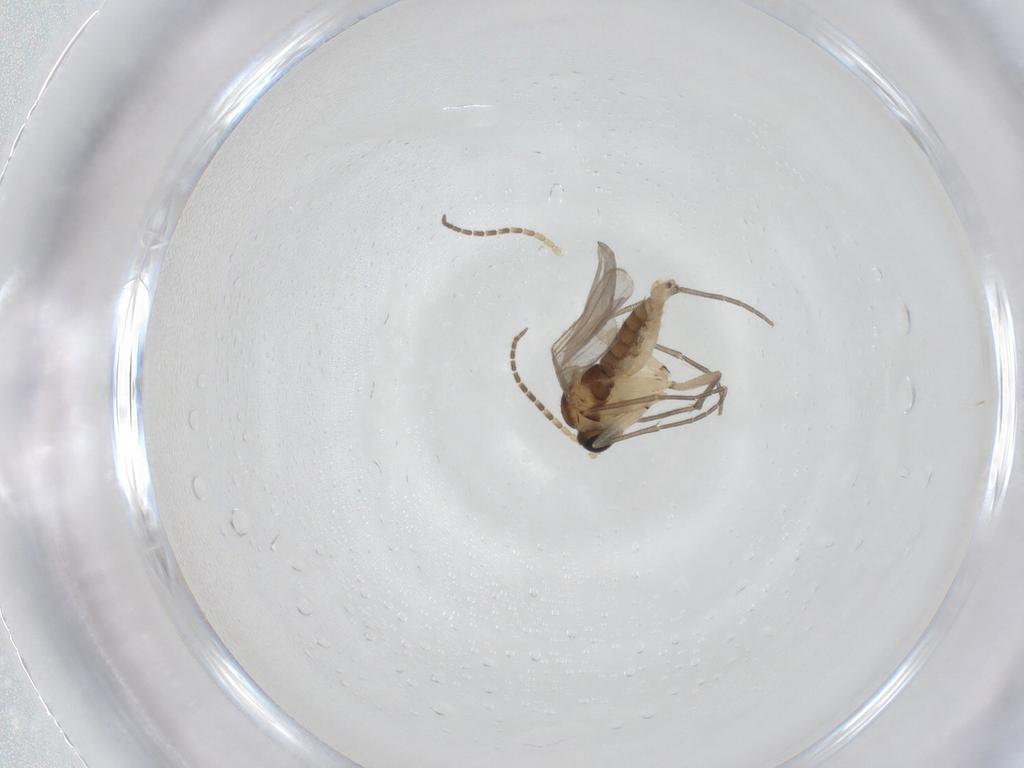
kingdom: Animalia
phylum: Arthropoda
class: Insecta
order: Diptera
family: Sciaridae
